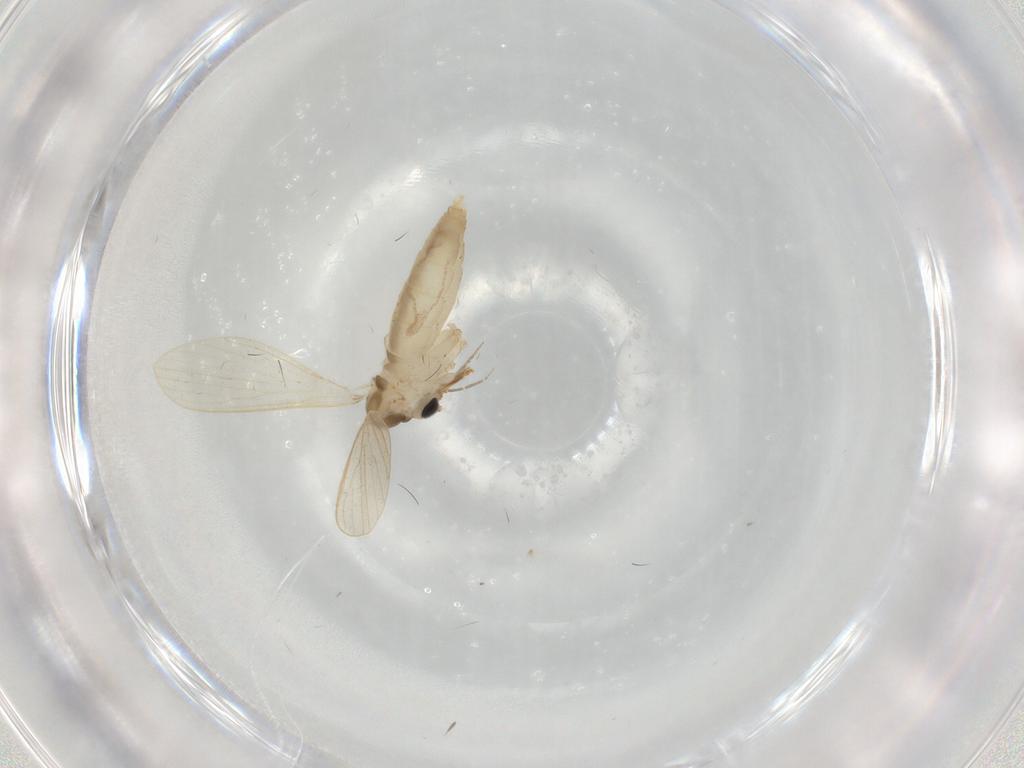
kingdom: Animalia
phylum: Arthropoda
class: Insecta
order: Diptera
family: Psychodidae
